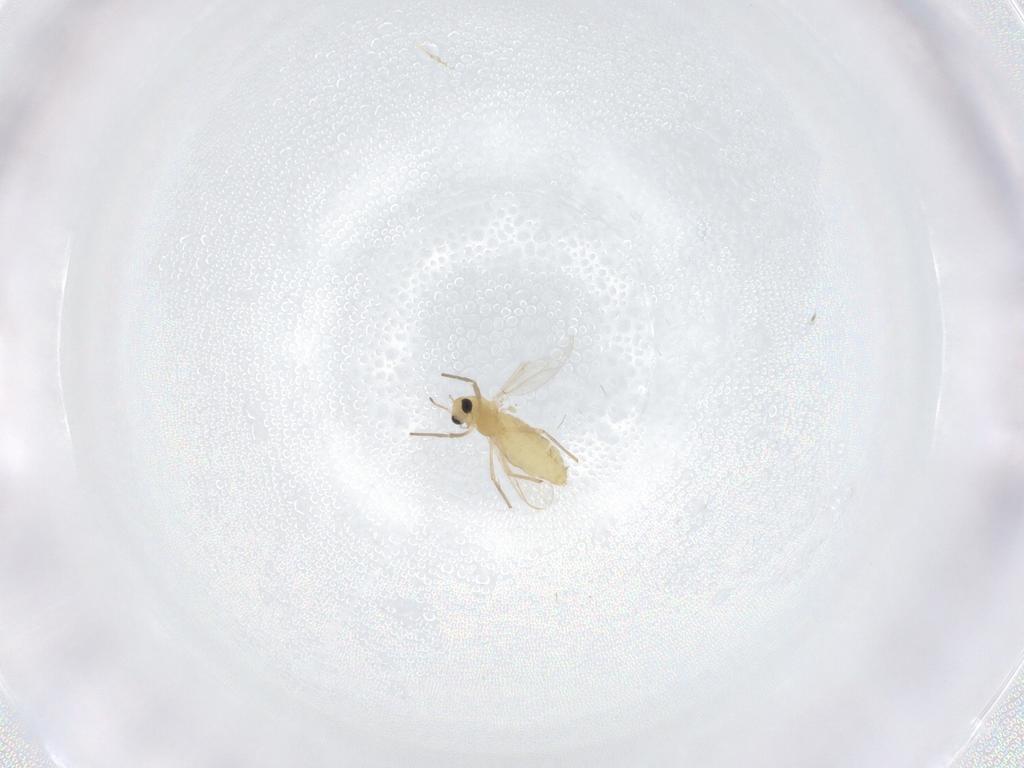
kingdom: Animalia
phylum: Arthropoda
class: Insecta
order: Diptera
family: Chironomidae
